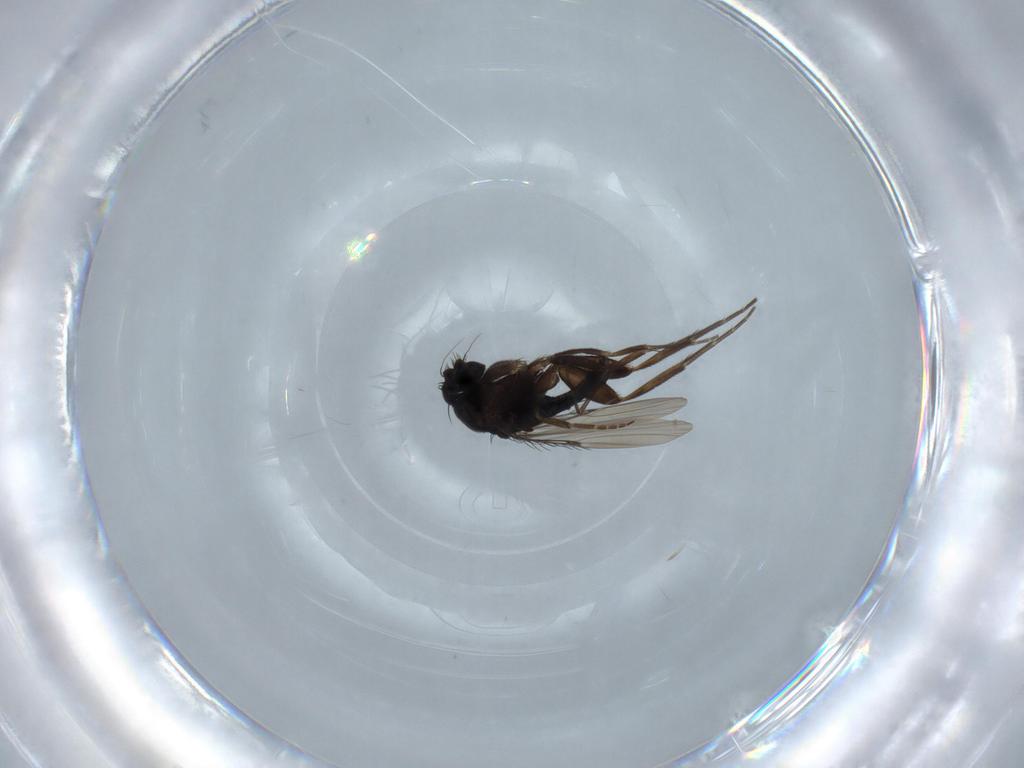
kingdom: Animalia
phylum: Arthropoda
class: Insecta
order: Diptera
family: Phoridae
